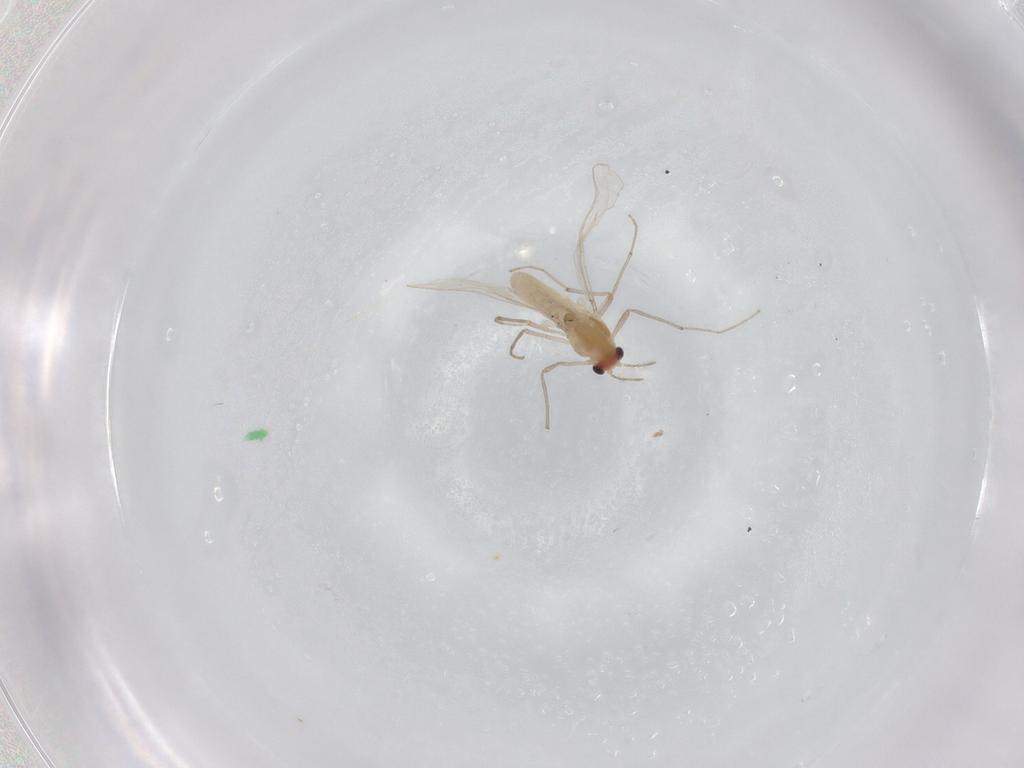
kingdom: Animalia
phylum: Arthropoda
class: Insecta
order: Diptera
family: Chironomidae
